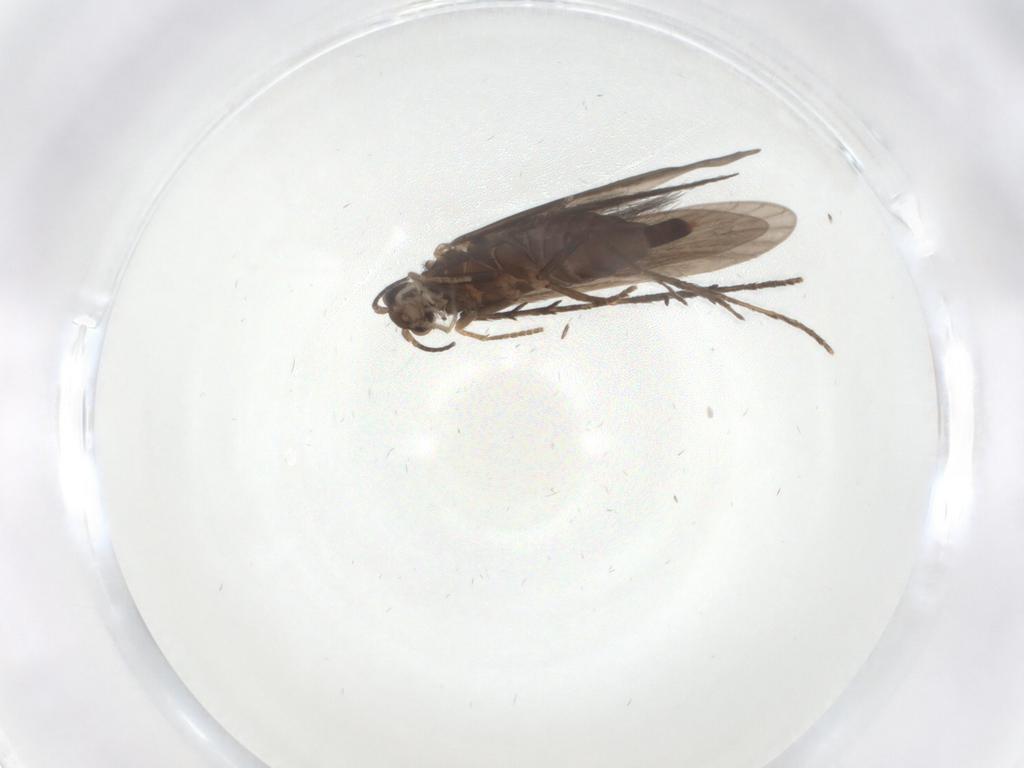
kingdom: Animalia
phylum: Arthropoda
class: Insecta
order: Trichoptera
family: Xiphocentronidae
